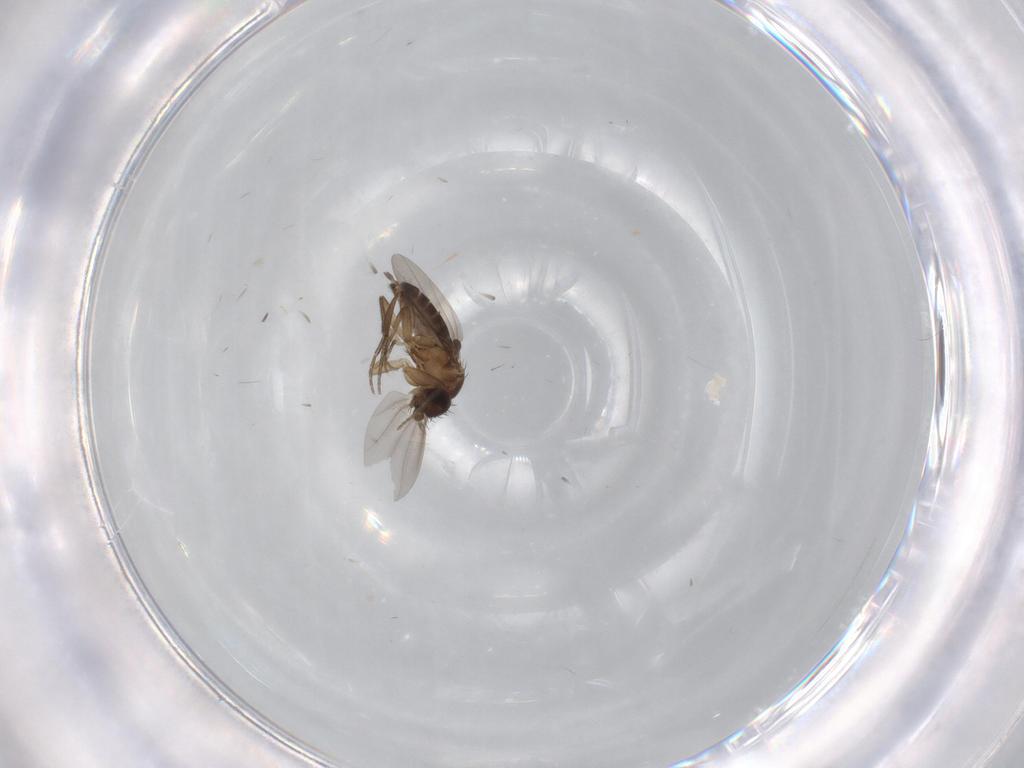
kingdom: Animalia
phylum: Arthropoda
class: Insecta
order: Diptera
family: Phoridae
